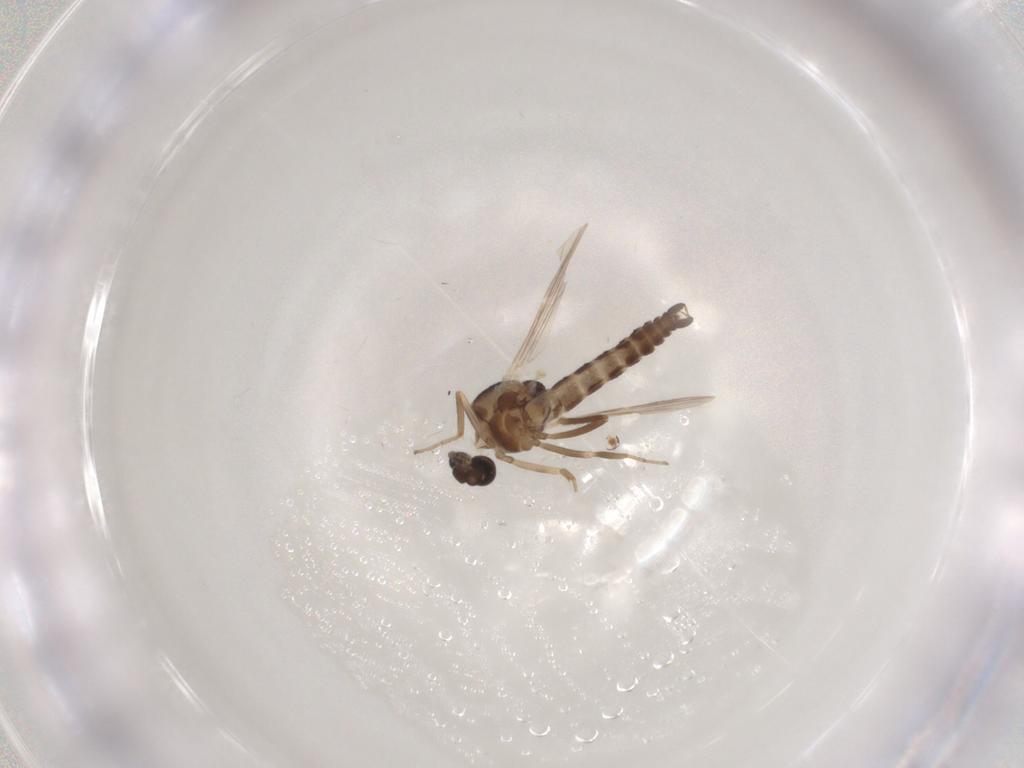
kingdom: Animalia
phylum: Arthropoda
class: Insecta
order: Diptera
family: Ceratopogonidae
